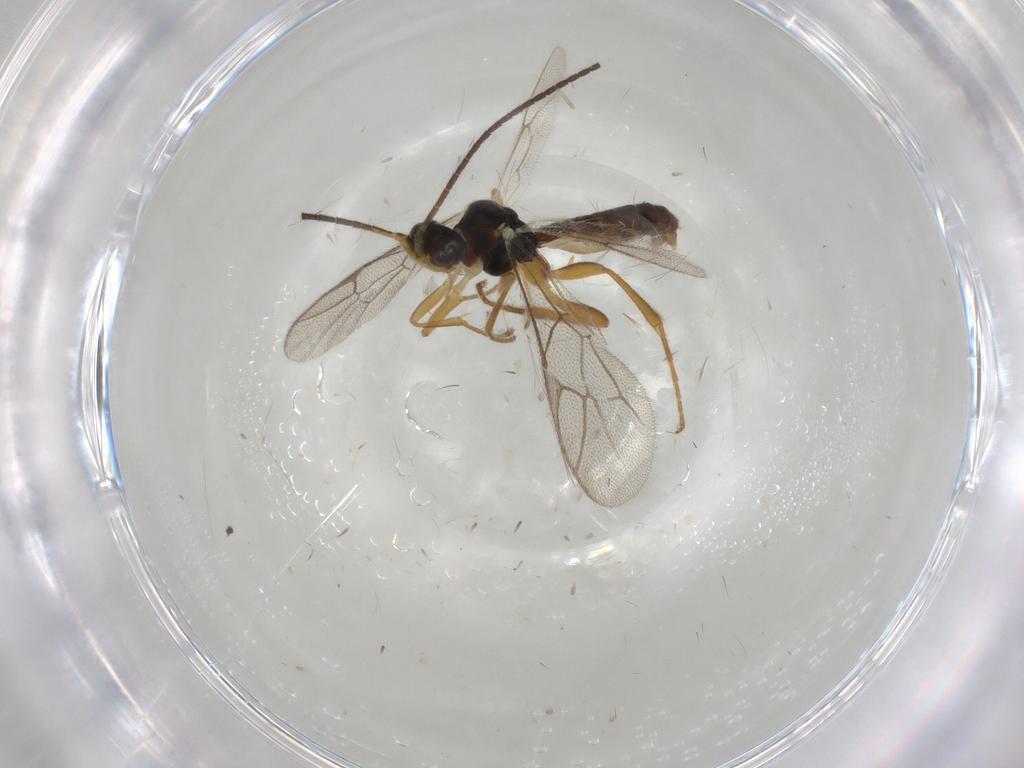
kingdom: Animalia
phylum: Arthropoda
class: Insecta
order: Hymenoptera
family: Ichneumonidae
